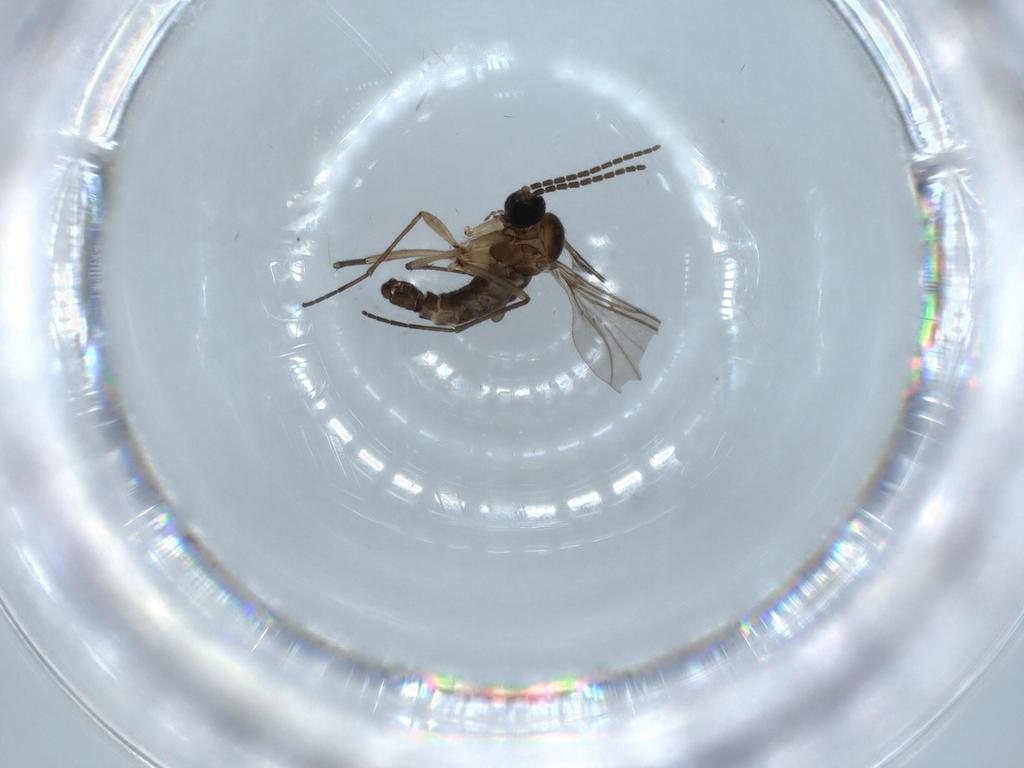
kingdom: Animalia
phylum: Arthropoda
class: Insecta
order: Diptera
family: Sciaridae
